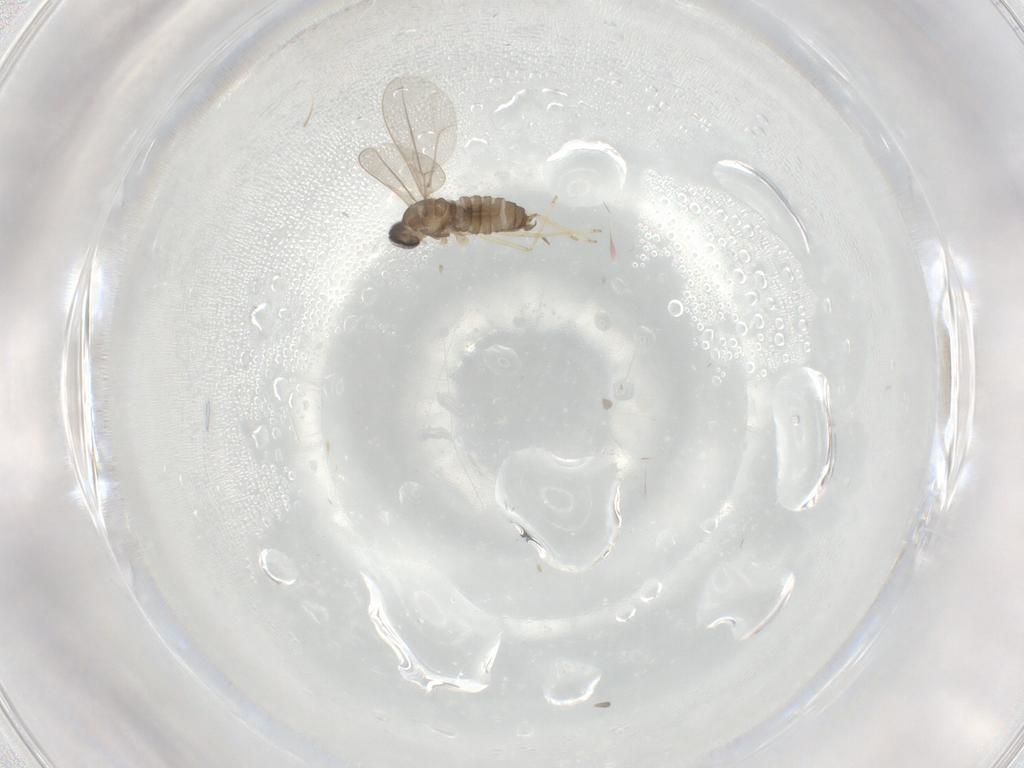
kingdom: Animalia
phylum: Arthropoda
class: Insecta
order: Diptera
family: Cecidomyiidae
